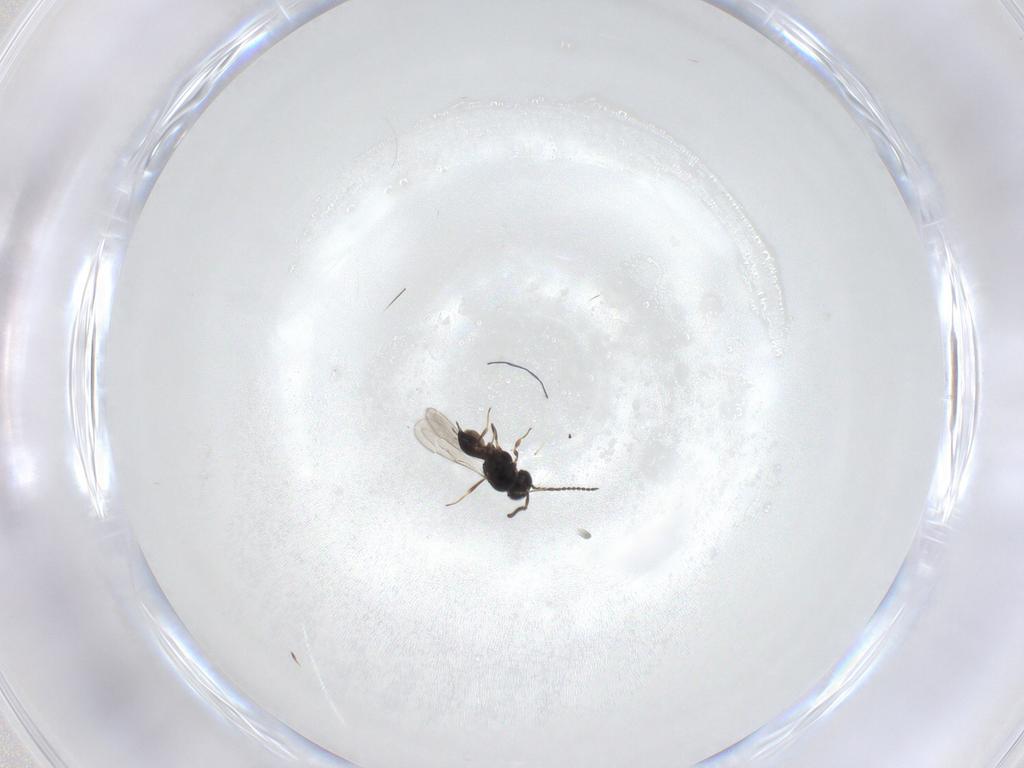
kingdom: Animalia
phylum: Arthropoda
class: Insecta
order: Hymenoptera
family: Scelionidae
